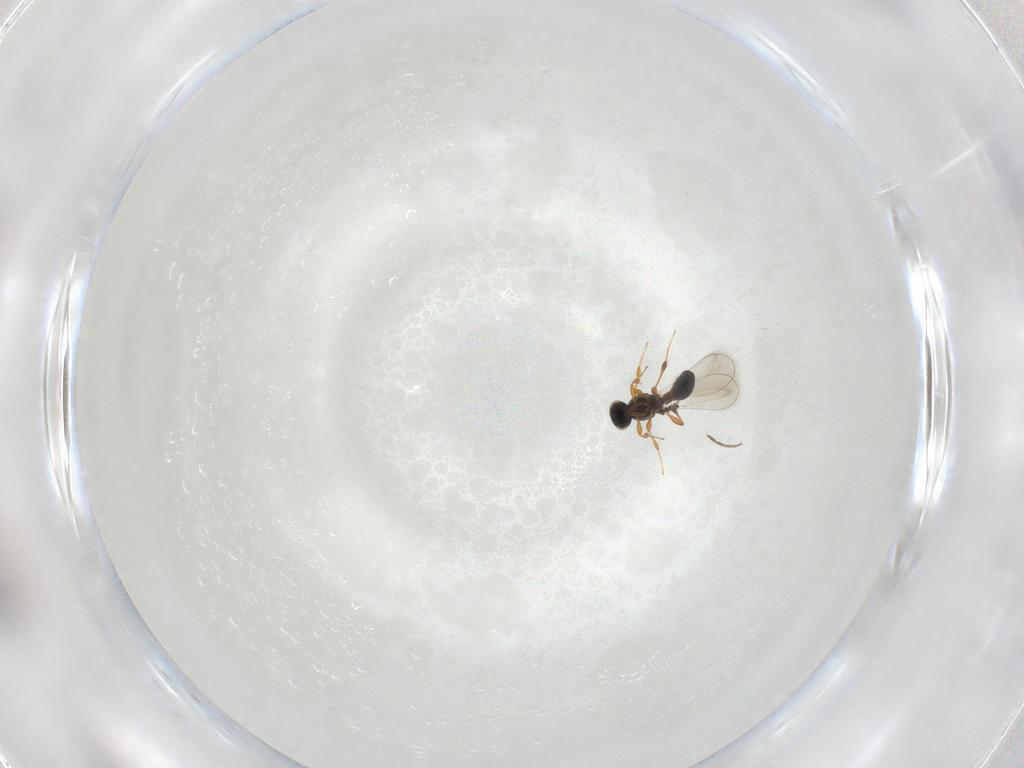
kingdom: Animalia
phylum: Arthropoda
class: Insecta
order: Hymenoptera
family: Platygastridae
